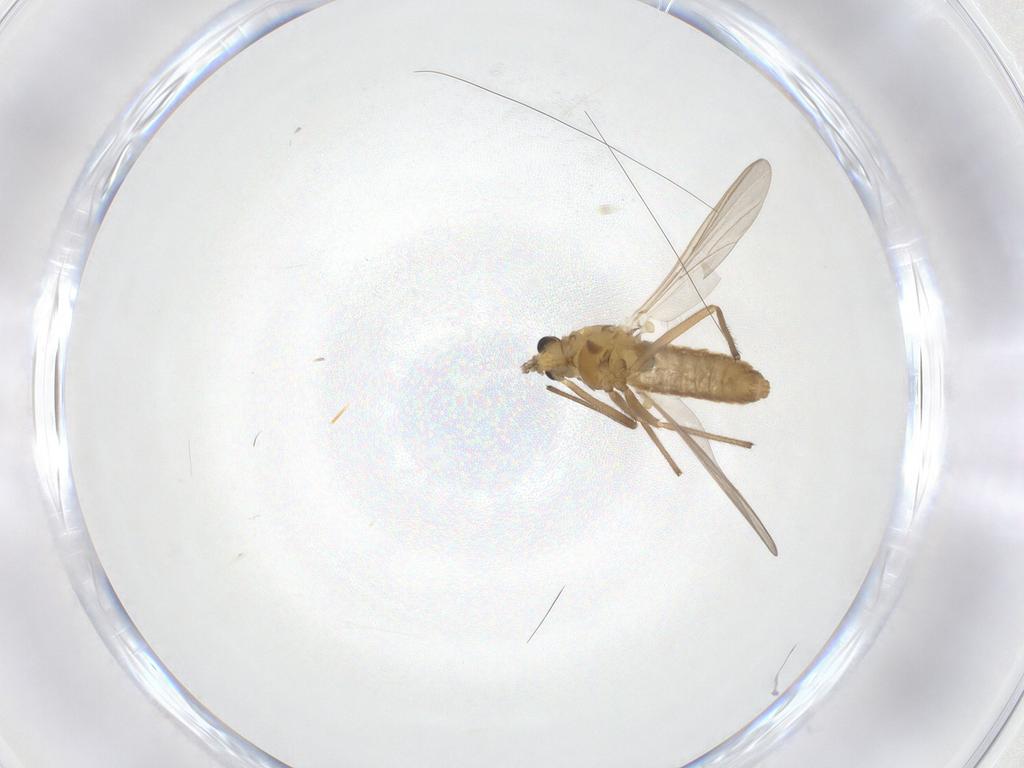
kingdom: Animalia
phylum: Arthropoda
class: Insecta
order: Diptera
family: Chironomidae
